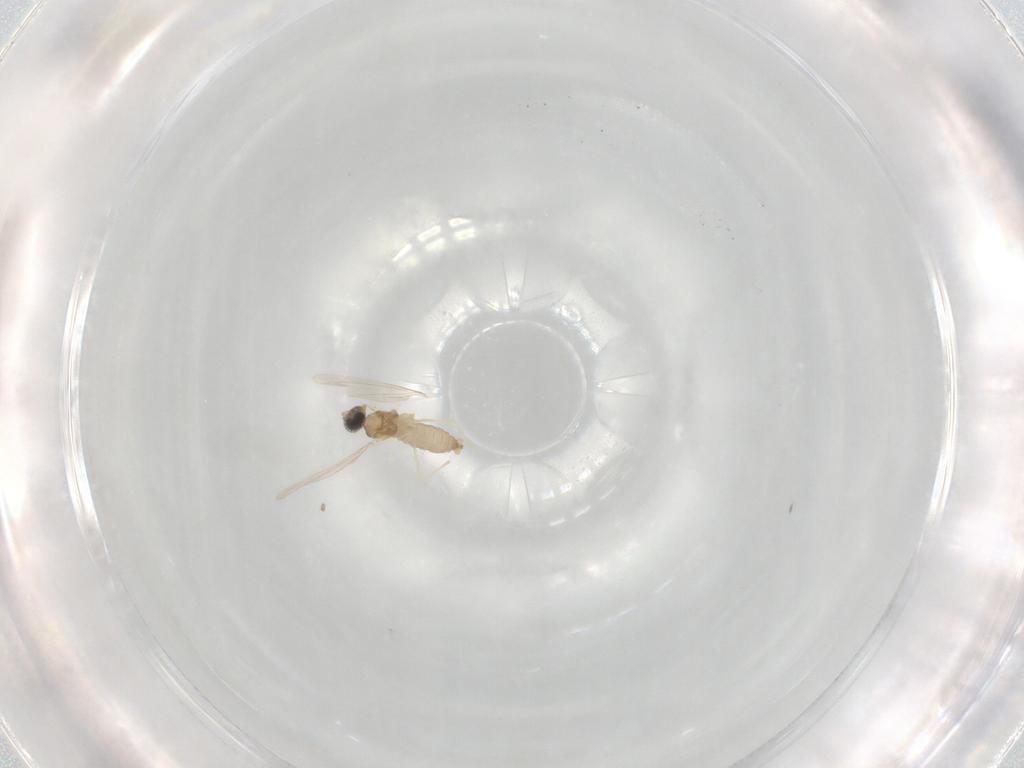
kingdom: Animalia
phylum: Arthropoda
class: Insecta
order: Diptera
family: Cecidomyiidae
